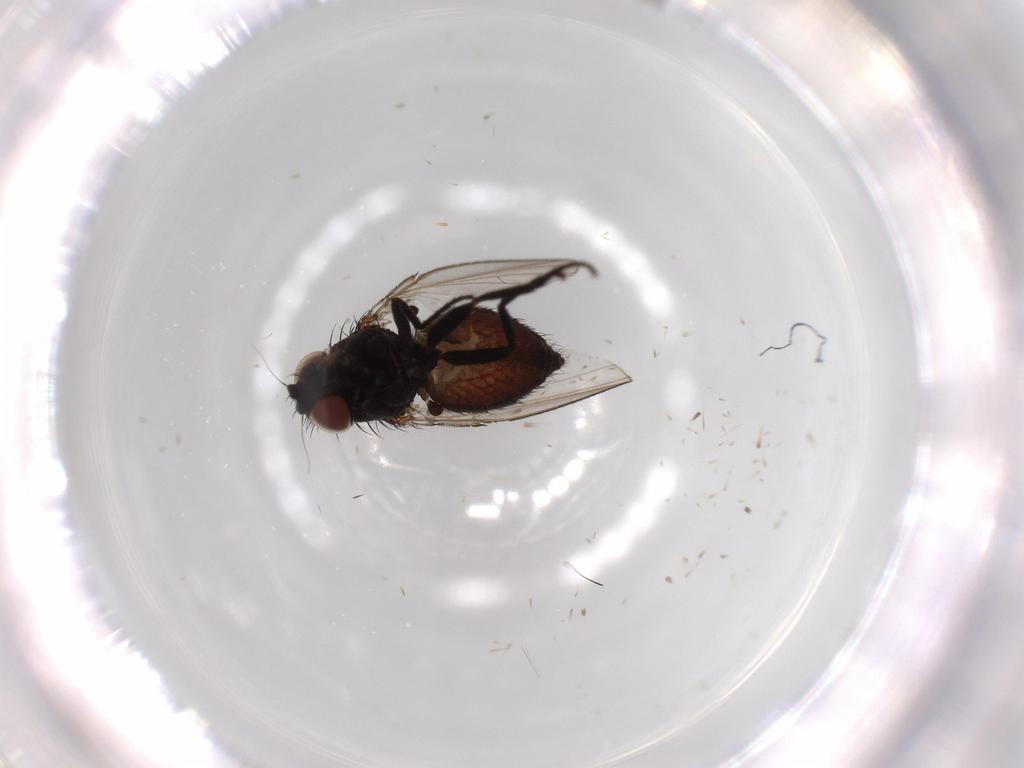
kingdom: Animalia
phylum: Arthropoda
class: Insecta
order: Diptera
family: Milichiidae
